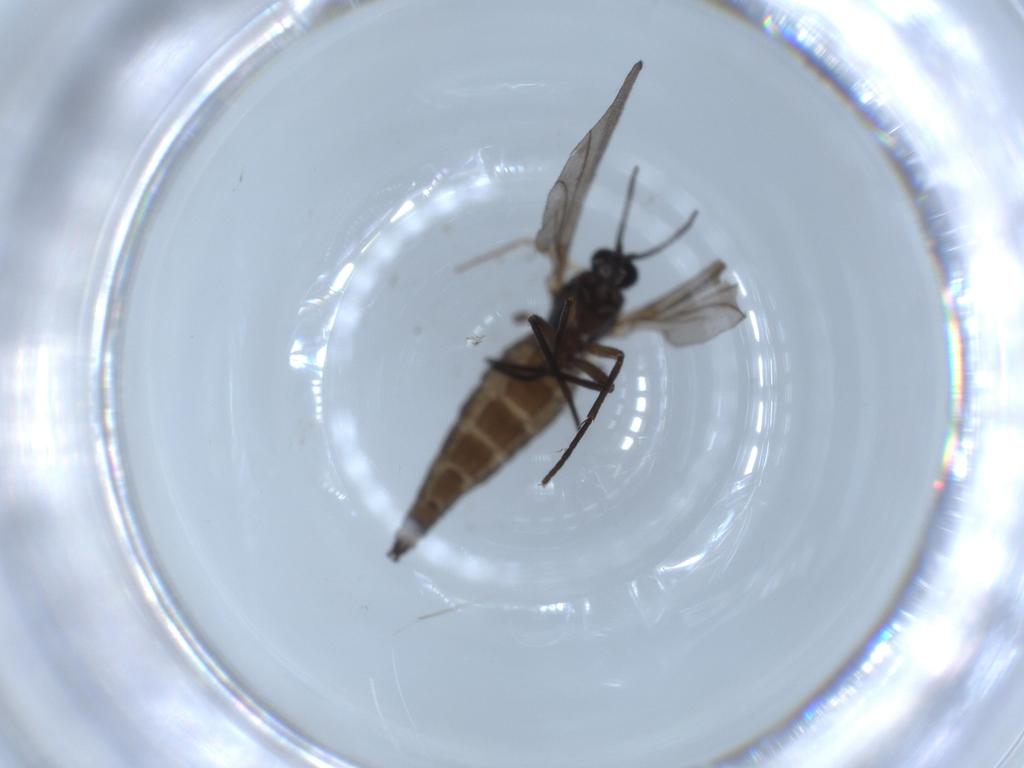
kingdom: Animalia
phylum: Arthropoda
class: Insecta
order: Diptera
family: Sciaridae
